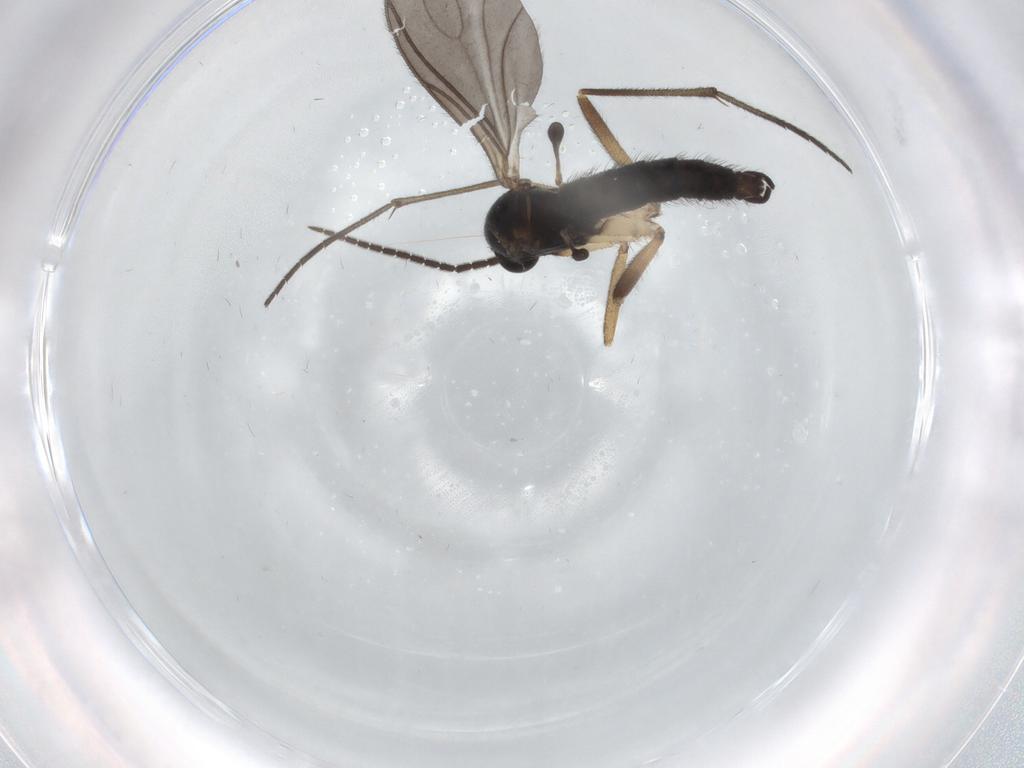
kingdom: Animalia
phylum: Arthropoda
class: Insecta
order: Diptera
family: Sciaridae
